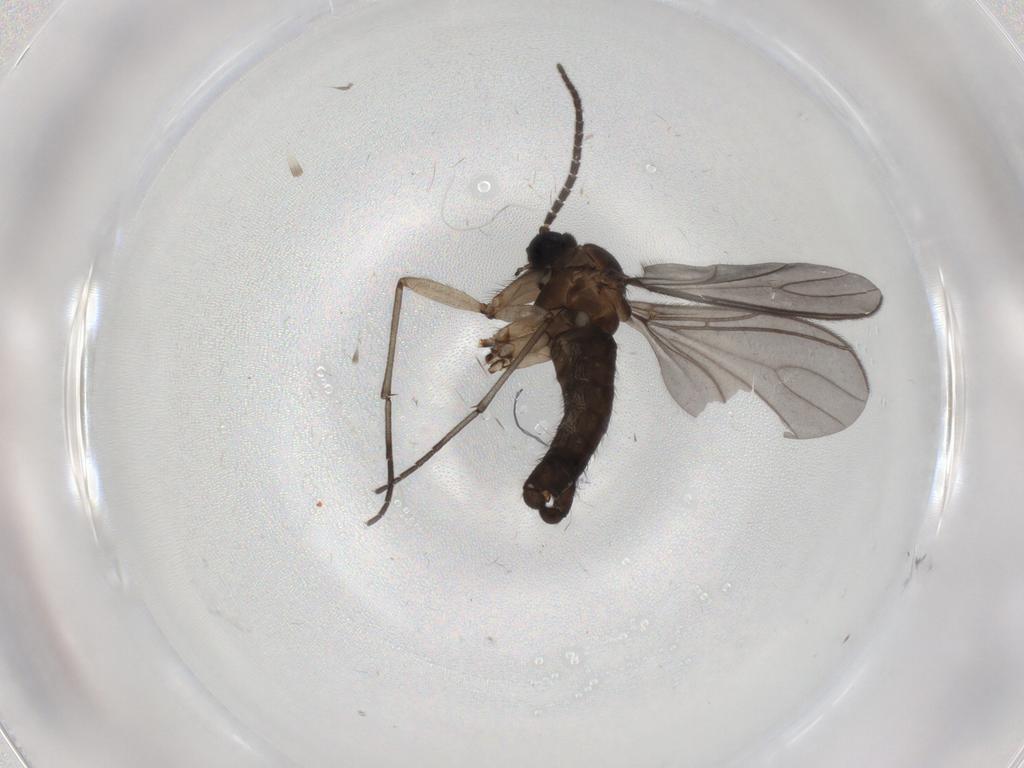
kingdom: Animalia
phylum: Arthropoda
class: Insecta
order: Diptera
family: Sciaridae
